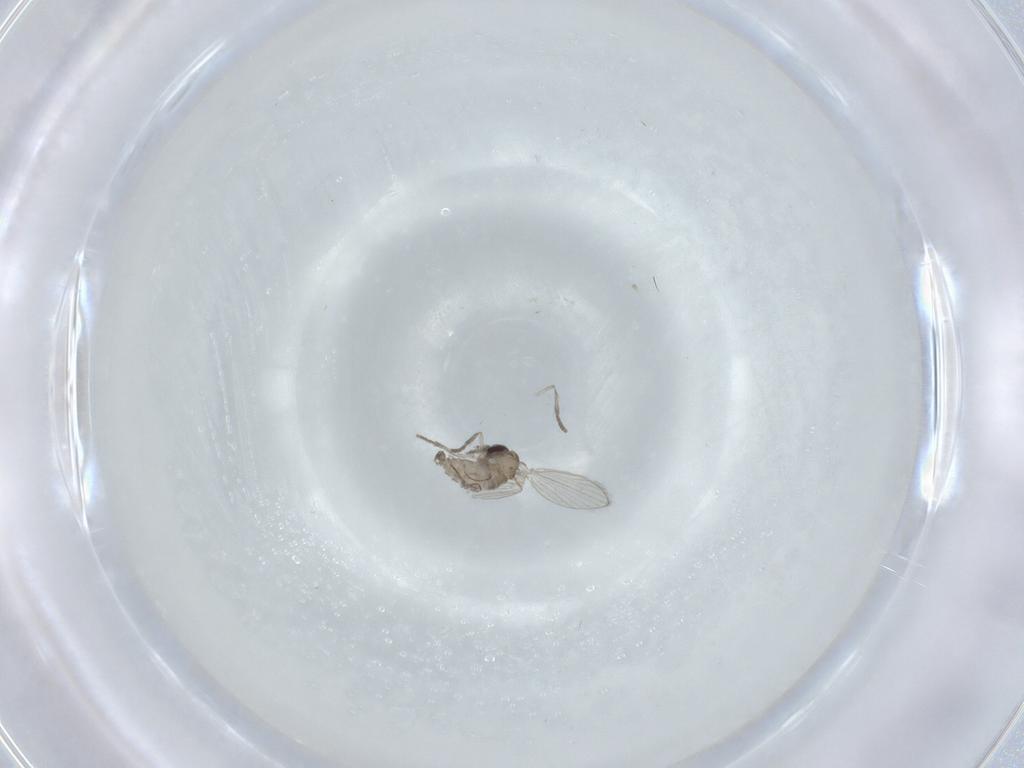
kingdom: Animalia
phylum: Arthropoda
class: Insecta
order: Diptera
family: Psychodidae
